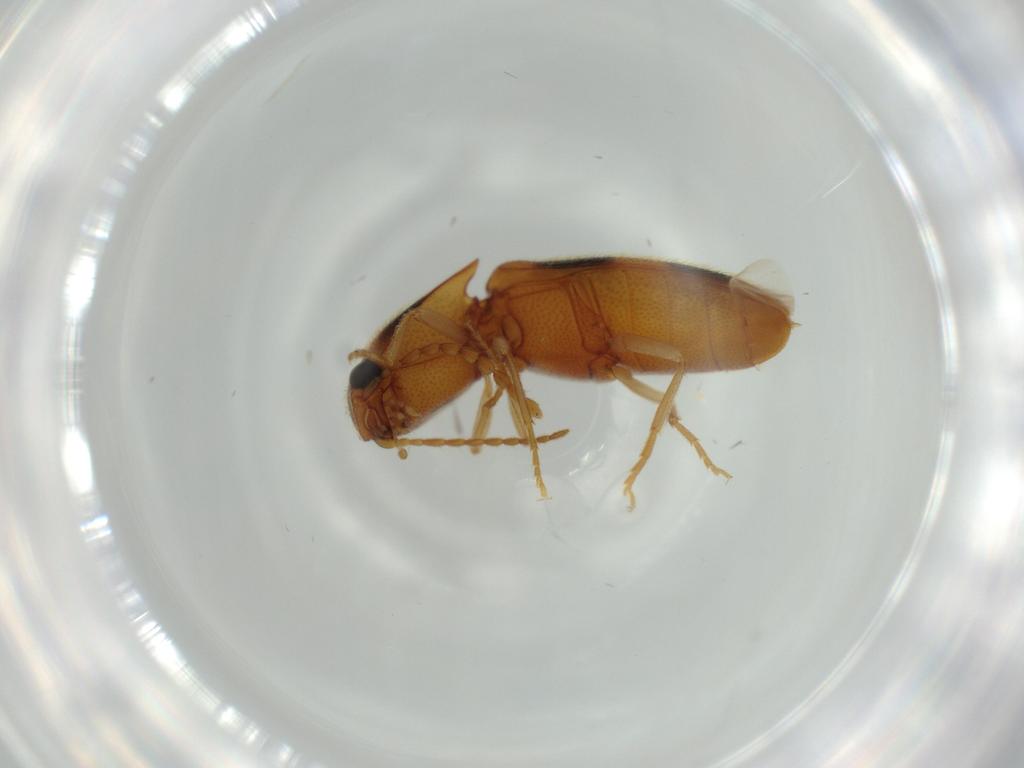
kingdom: Animalia
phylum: Arthropoda
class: Insecta
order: Coleoptera
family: Elateridae
